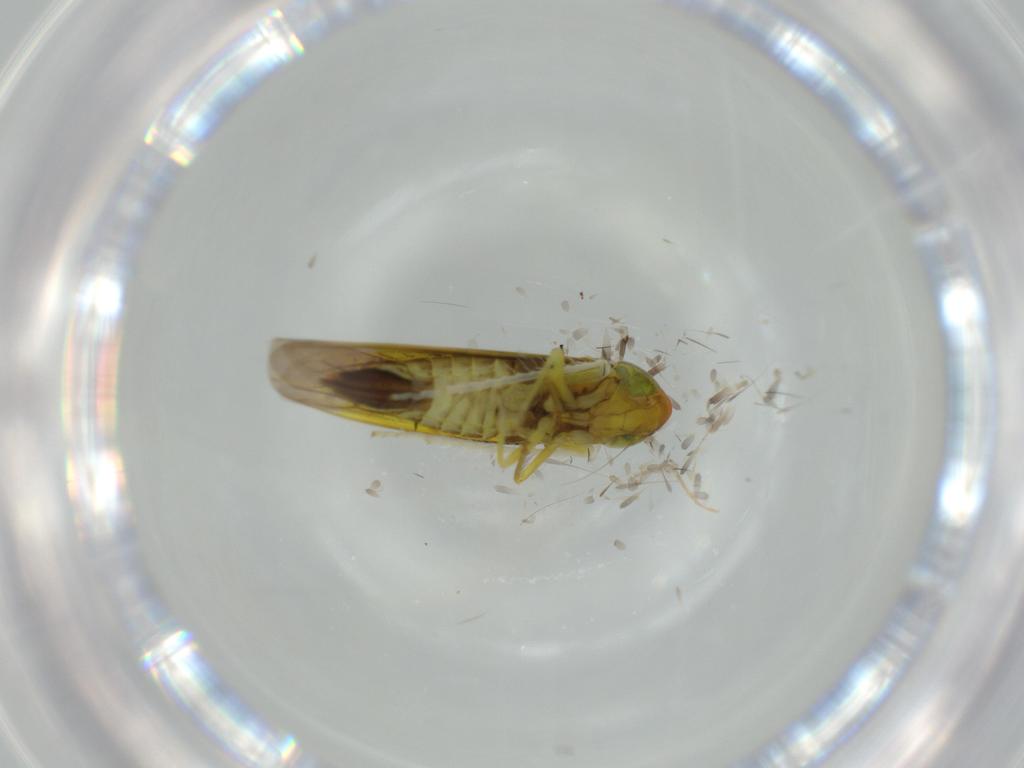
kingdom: Animalia
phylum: Arthropoda
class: Insecta
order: Hemiptera
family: Cicadellidae
